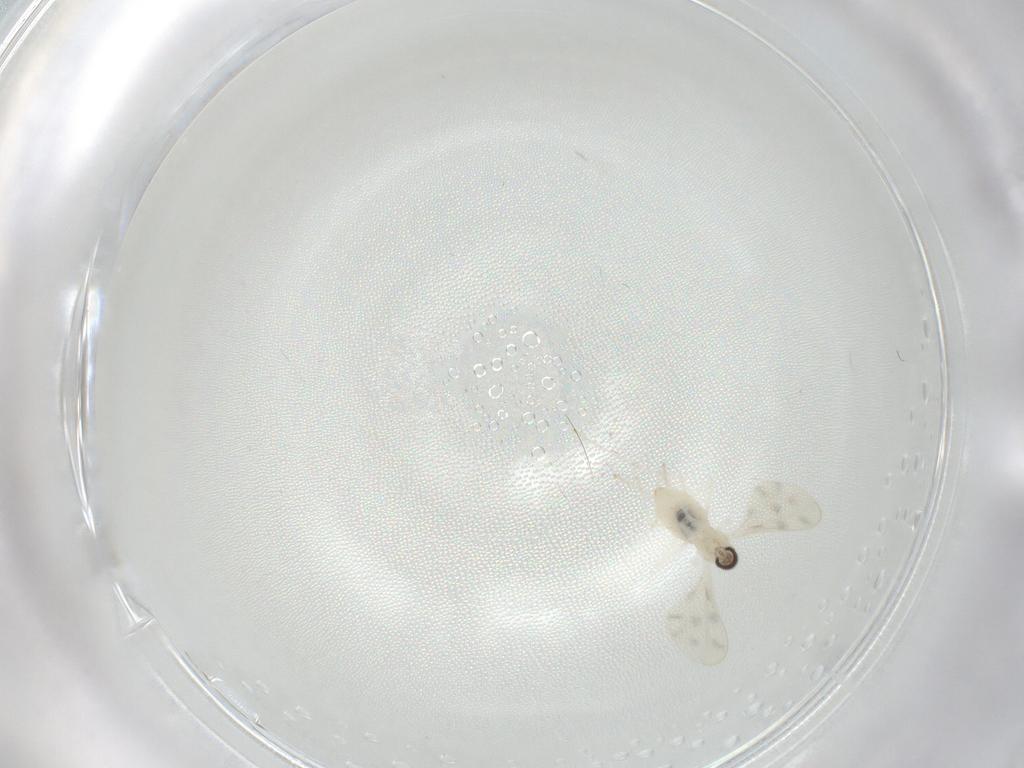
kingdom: Animalia
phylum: Arthropoda
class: Insecta
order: Diptera
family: Cecidomyiidae
